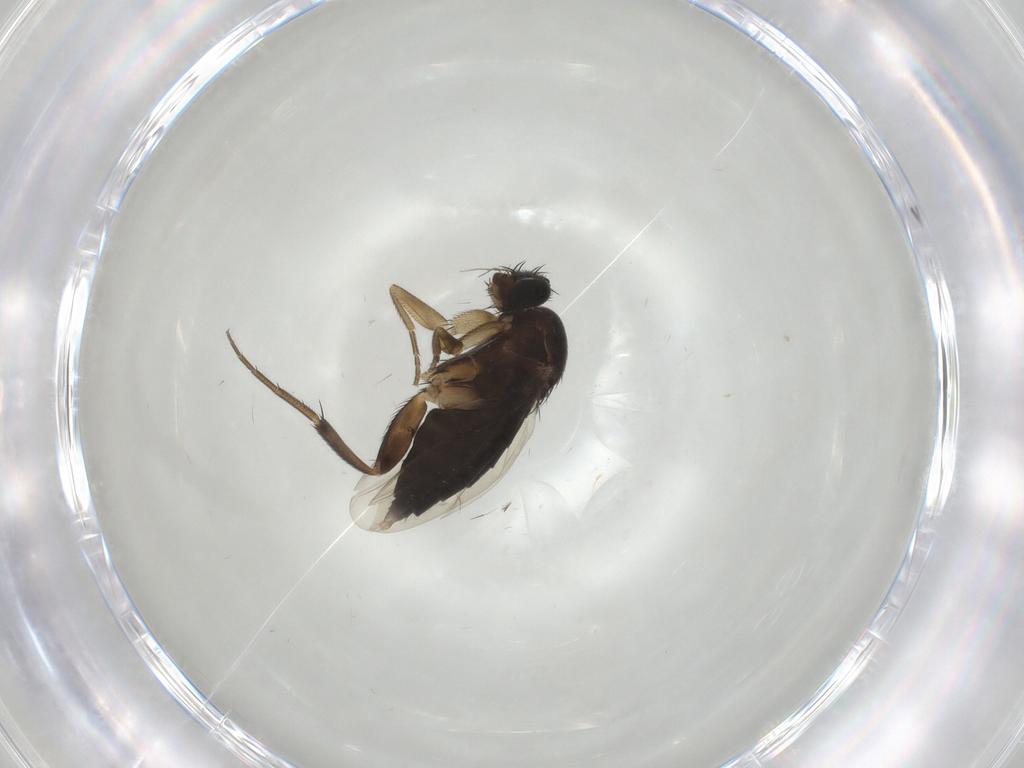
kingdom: Animalia
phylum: Arthropoda
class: Insecta
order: Diptera
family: Phoridae
